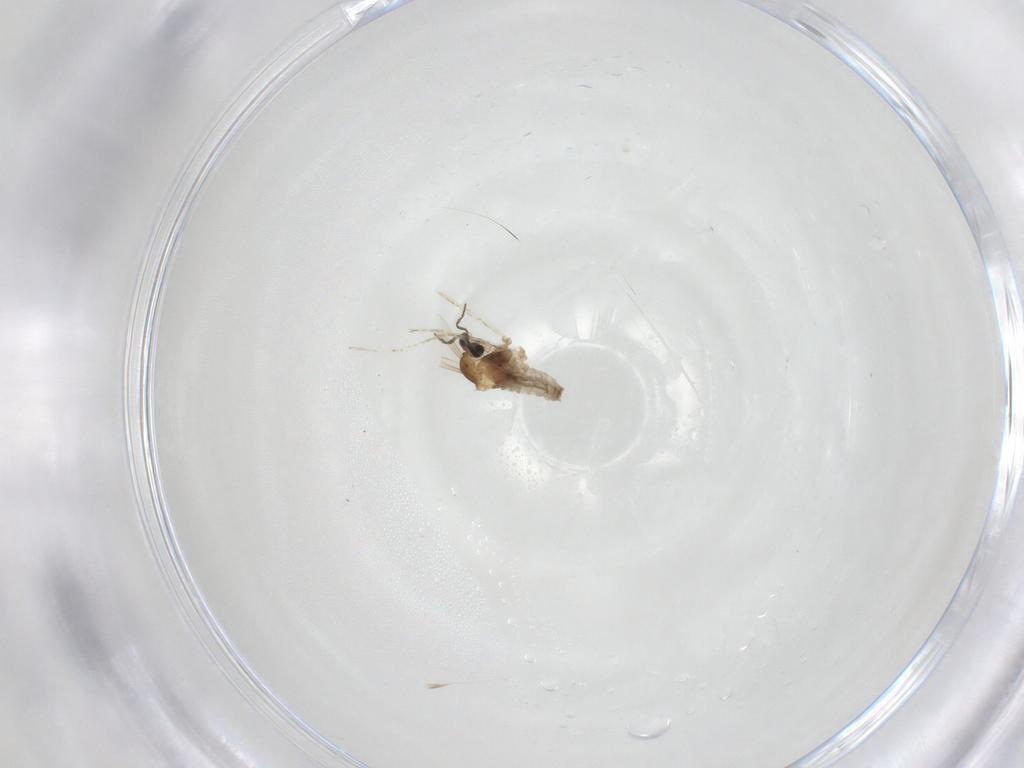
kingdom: Animalia
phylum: Arthropoda
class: Insecta
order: Diptera
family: Cecidomyiidae
